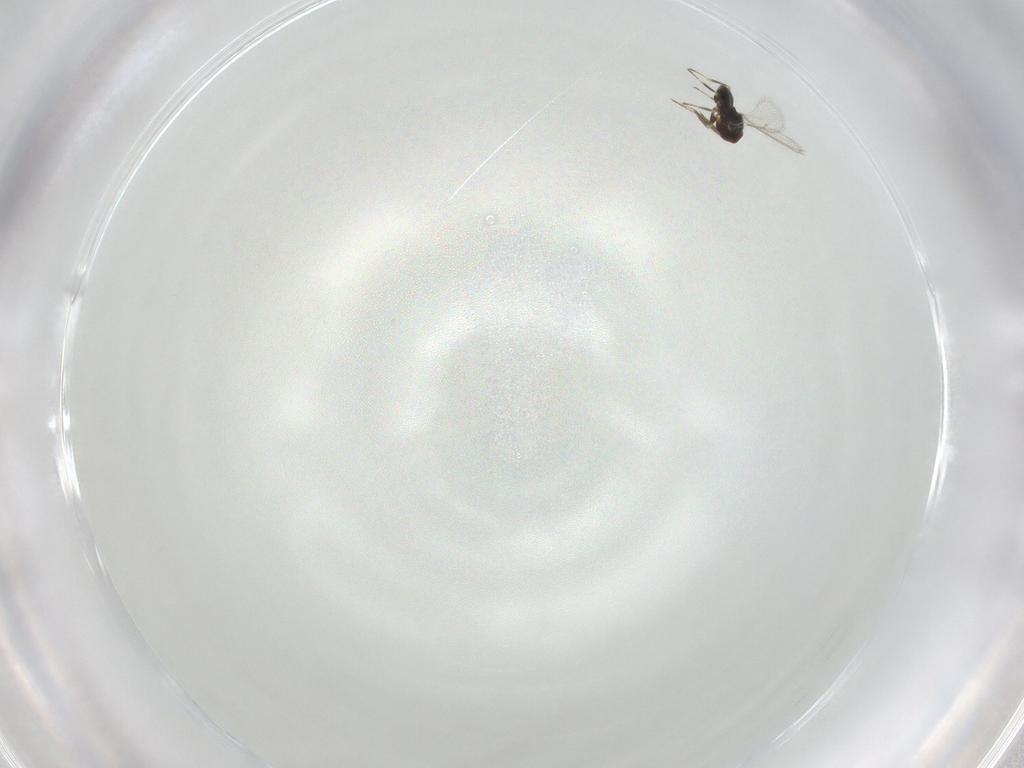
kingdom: Animalia
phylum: Arthropoda
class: Insecta
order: Hymenoptera
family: Eulophidae
